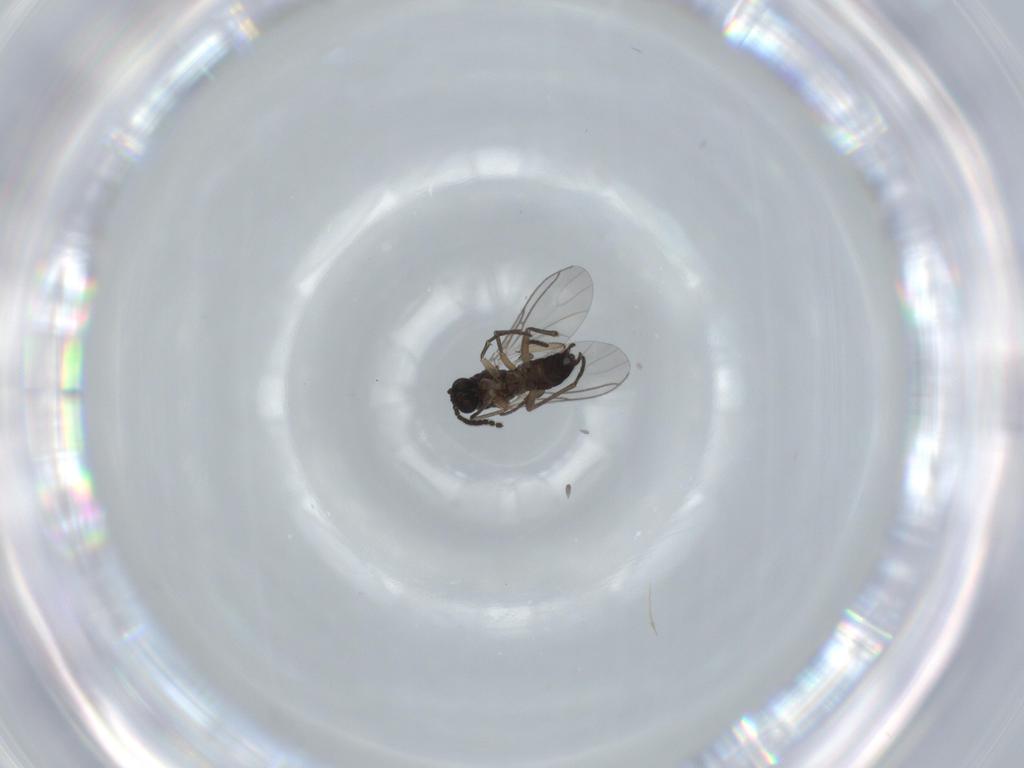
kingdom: Animalia
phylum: Arthropoda
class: Insecta
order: Diptera
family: Sciaridae
